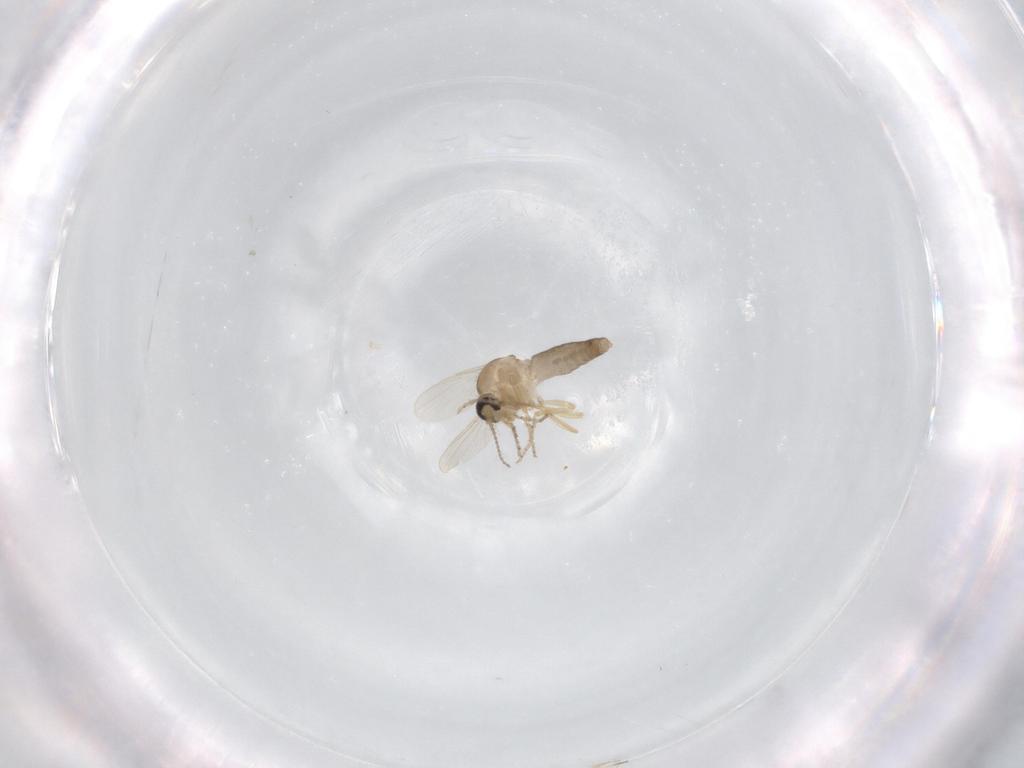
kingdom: Animalia
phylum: Arthropoda
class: Insecta
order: Diptera
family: Ceratopogonidae
